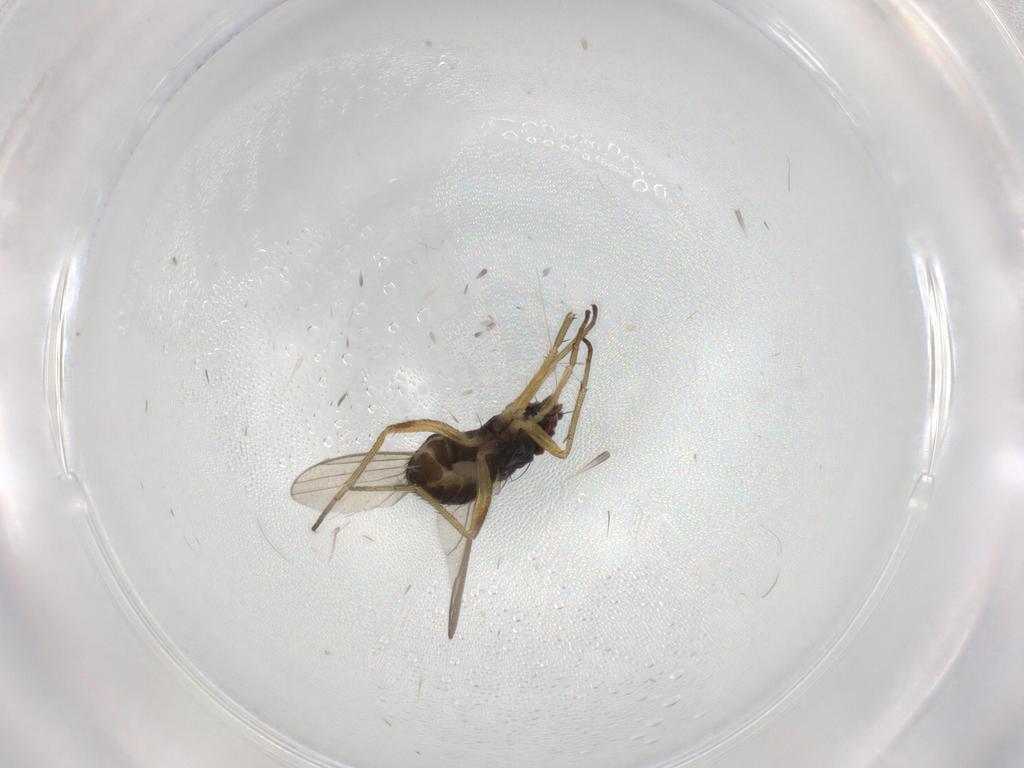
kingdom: Animalia
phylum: Arthropoda
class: Insecta
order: Diptera
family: Dolichopodidae
